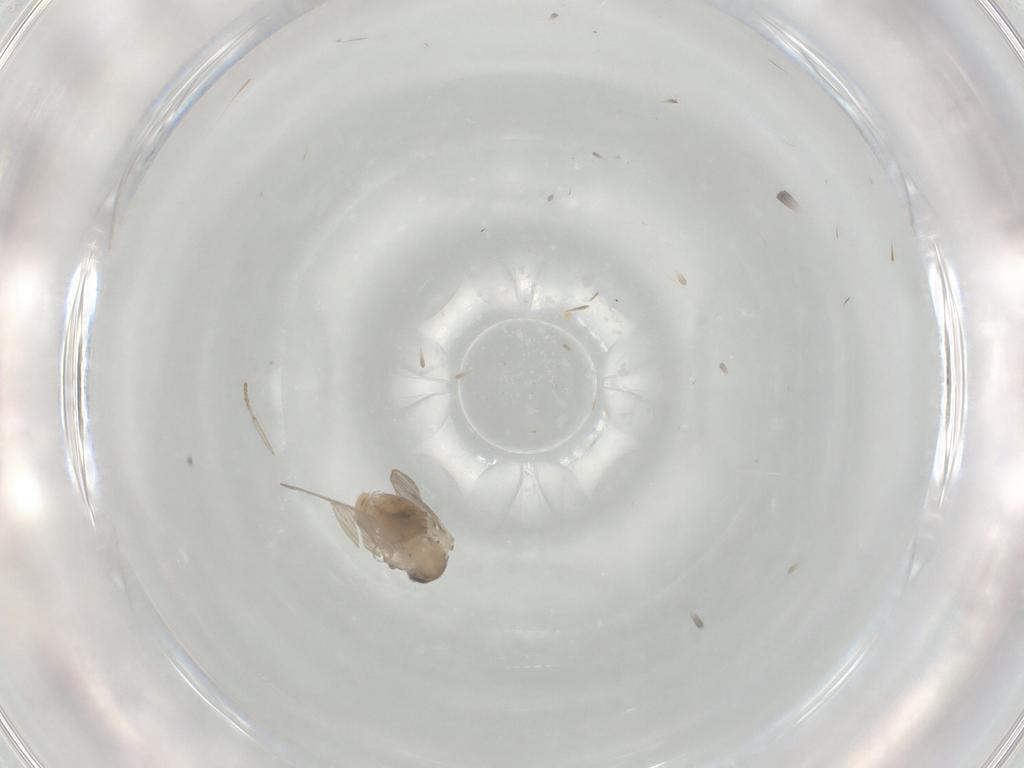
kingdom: Animalia
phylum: Arthropoda
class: Insecta
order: Diptera
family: Psychodidae
